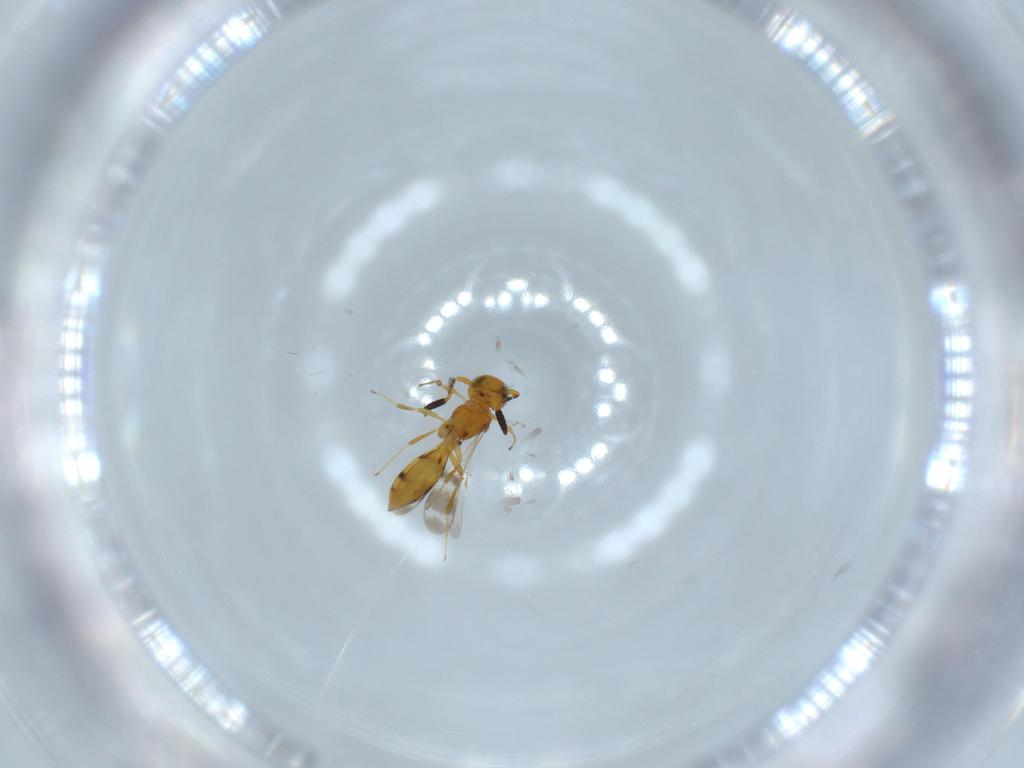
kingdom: Animalia
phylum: Arthropoda
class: Insecta
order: Hymenoptera
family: Scelionidae
